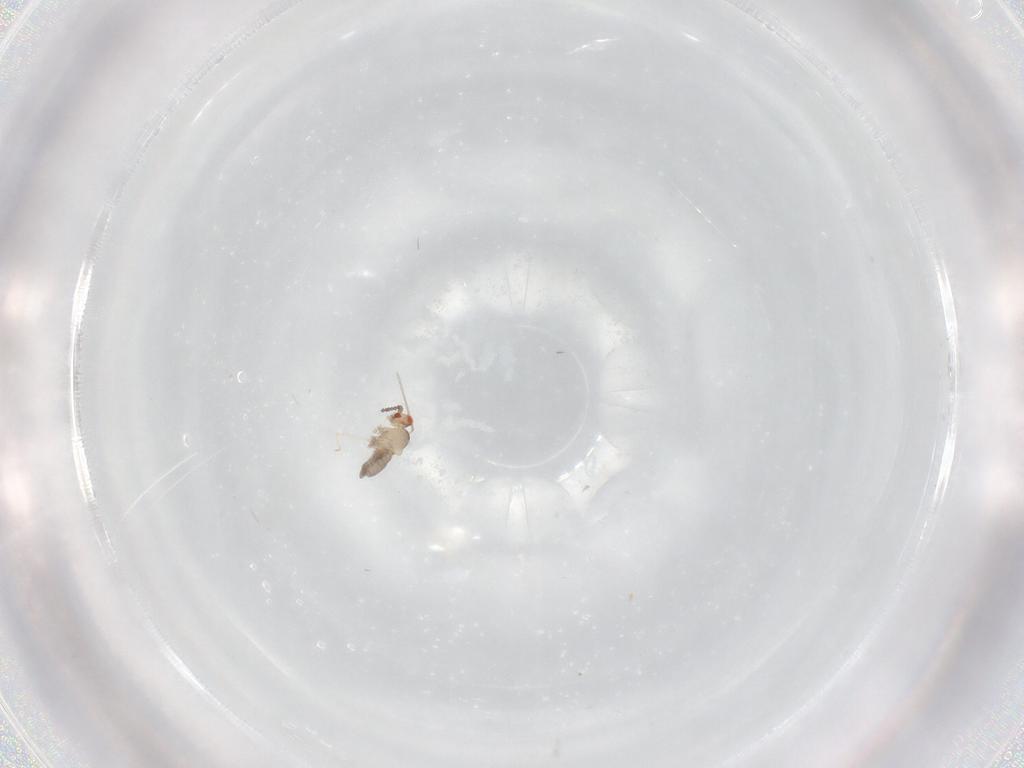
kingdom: Animalia
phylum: Arthropoda
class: Insecta
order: Diptera
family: Cecidomyiidae
